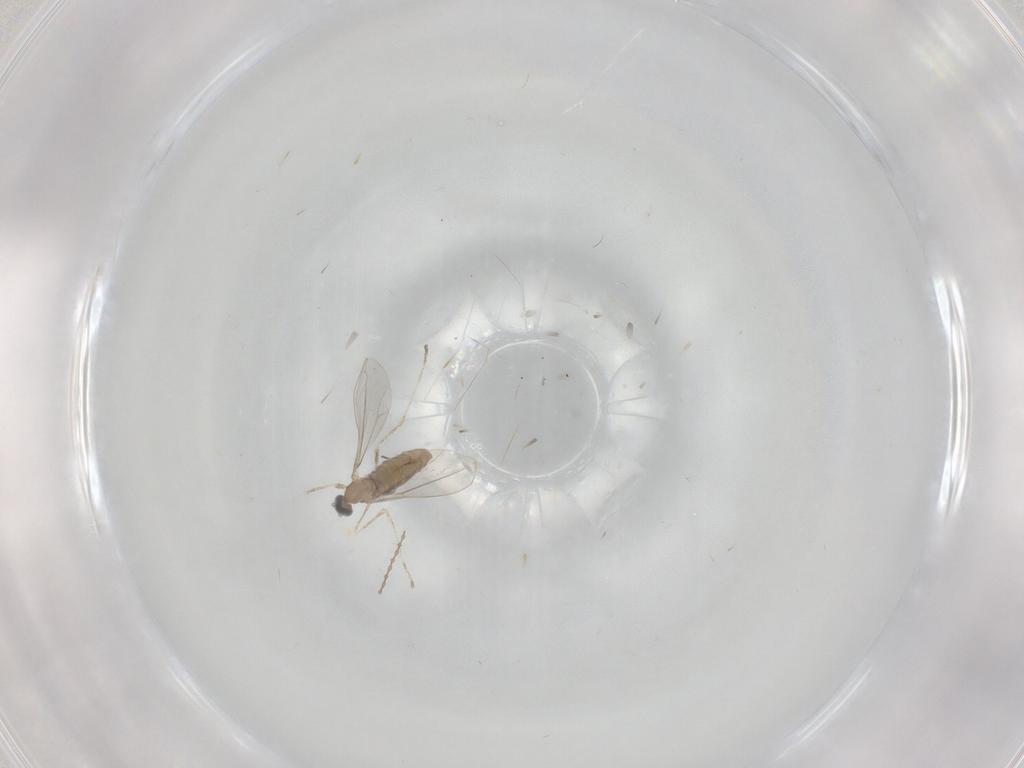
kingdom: Animalia
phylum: Arthropoda
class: Insecta
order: Diptera
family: Cecidomyiidae
